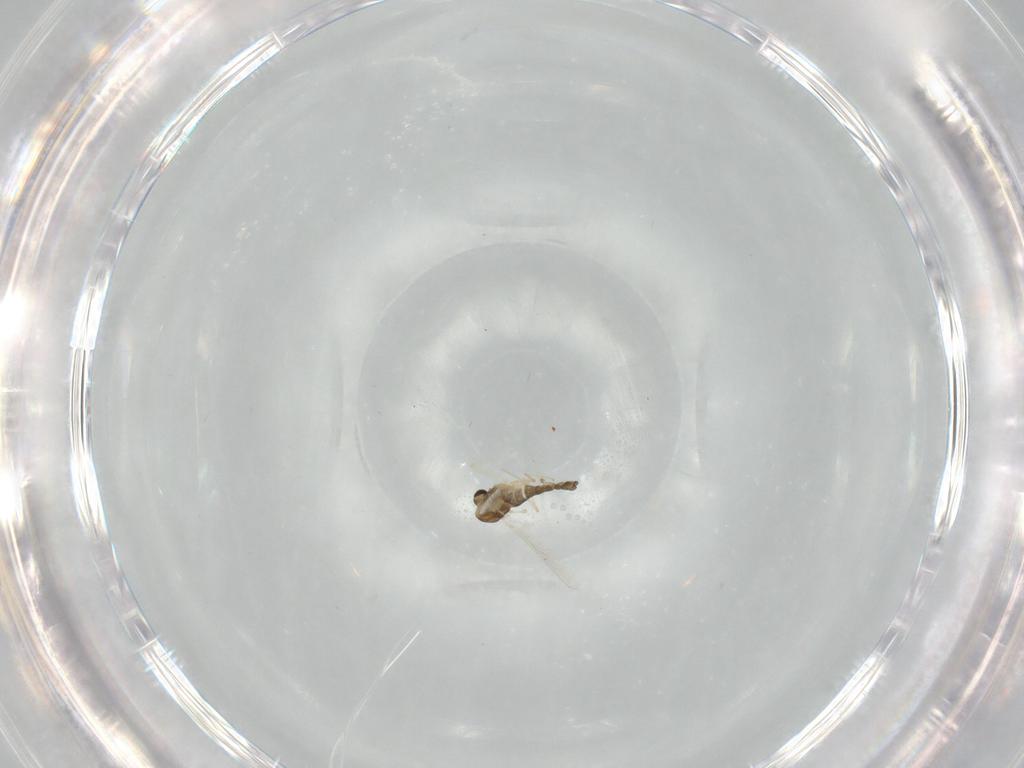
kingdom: Animalia
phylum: Arthropoda
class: Insecta
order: Diptera
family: Chironomidae
